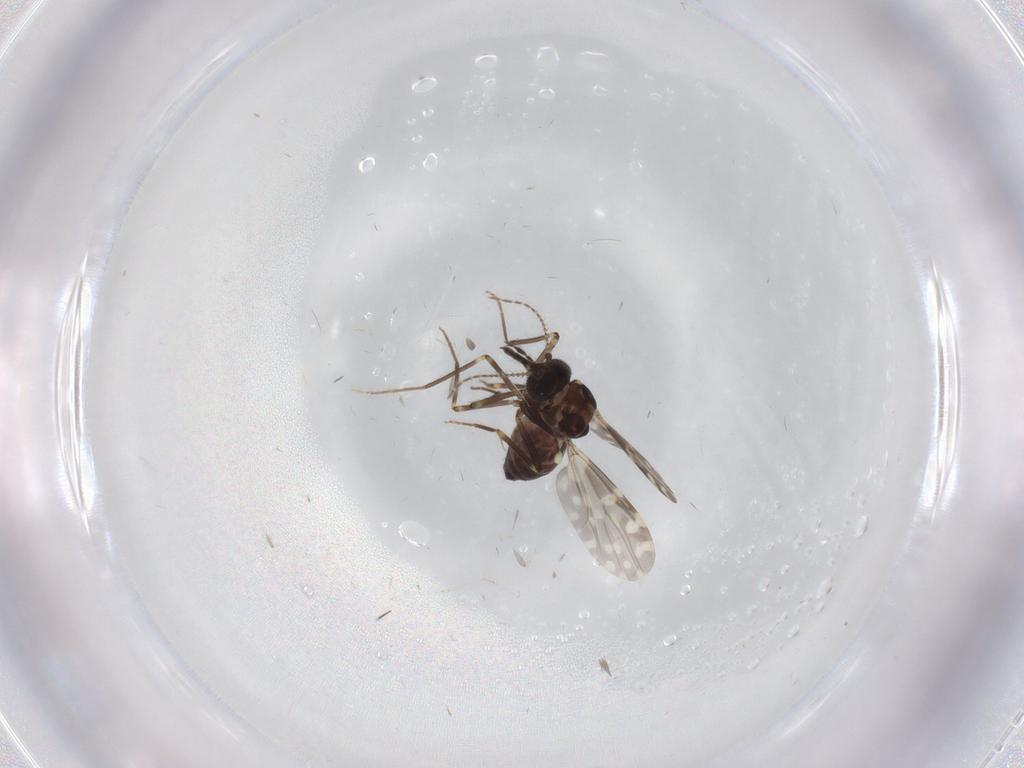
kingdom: Animalia
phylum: Arthropoda
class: Insecta
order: Diptera
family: Ceratopogonidae
